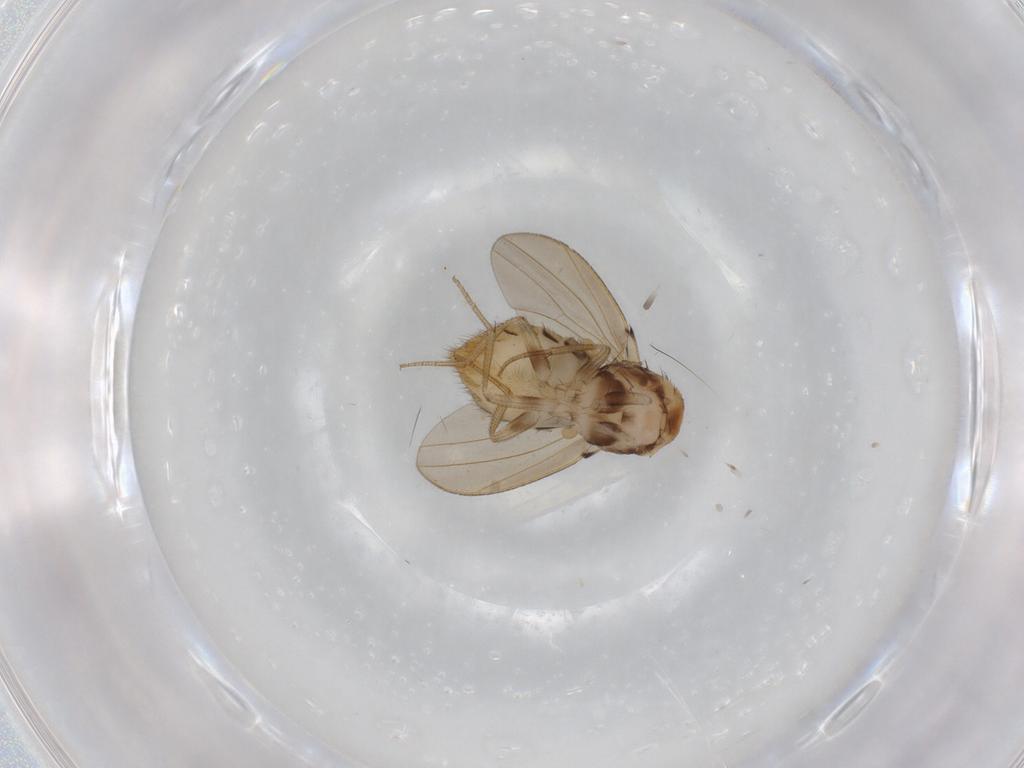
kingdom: Animalia
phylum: Arthropoda
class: Insecta
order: Diptera
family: Drosophilidae
